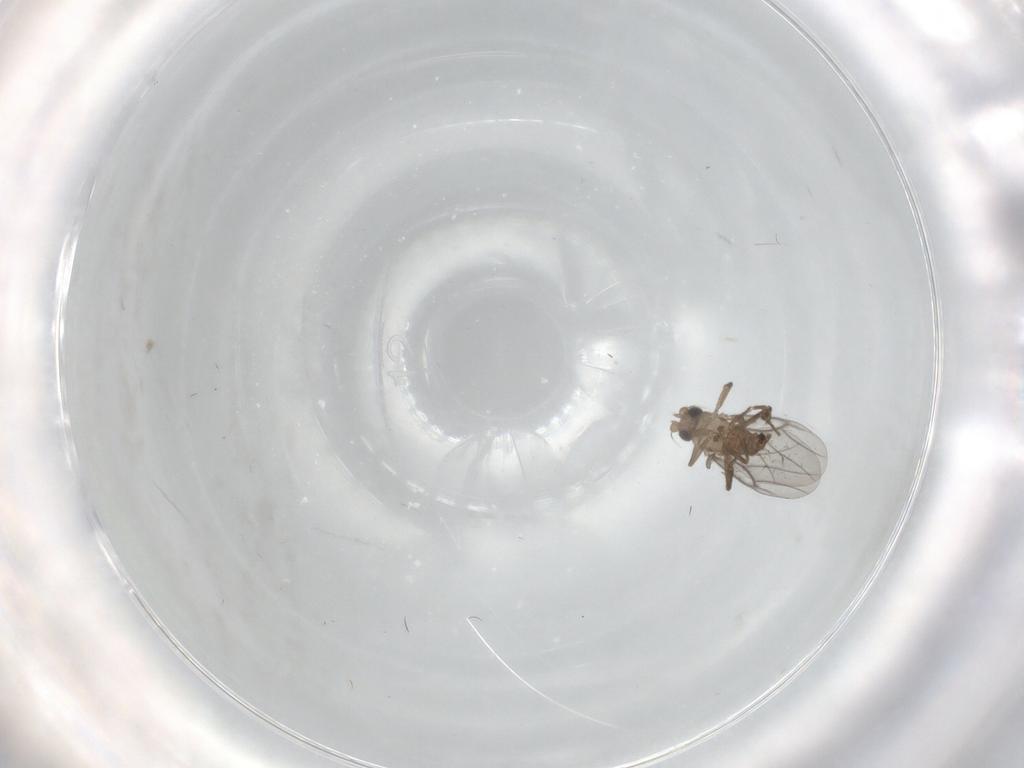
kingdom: Animalia
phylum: Arthropoda
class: Insecta
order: Diptera
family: Chironomidae
